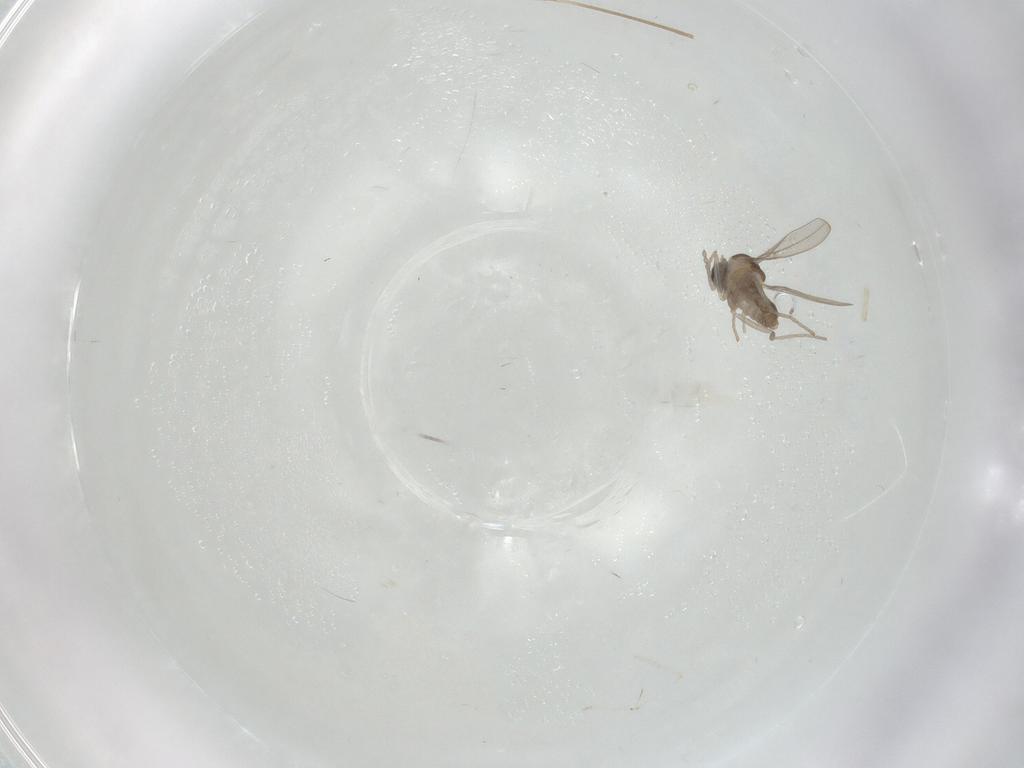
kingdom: Animalia
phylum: Arthropoda
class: Insecta
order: Diptera
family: Cecidomyiidae
